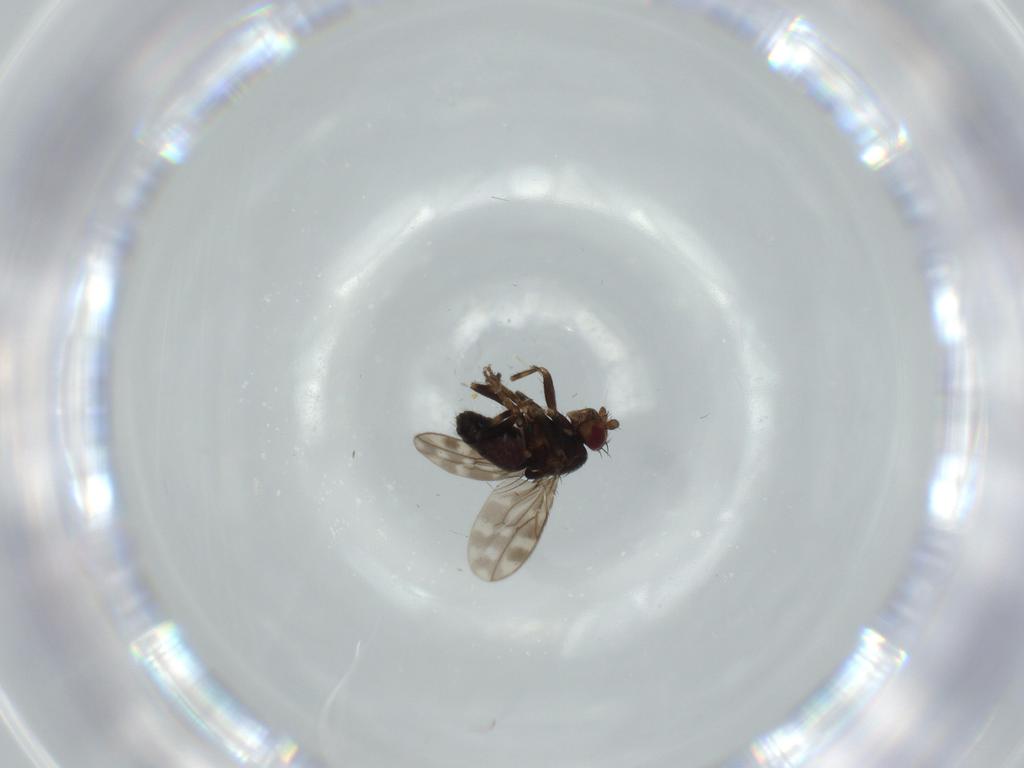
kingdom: Animalia
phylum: Arthropoda
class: Insecta
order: Diptera
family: Sphaeroceridae
